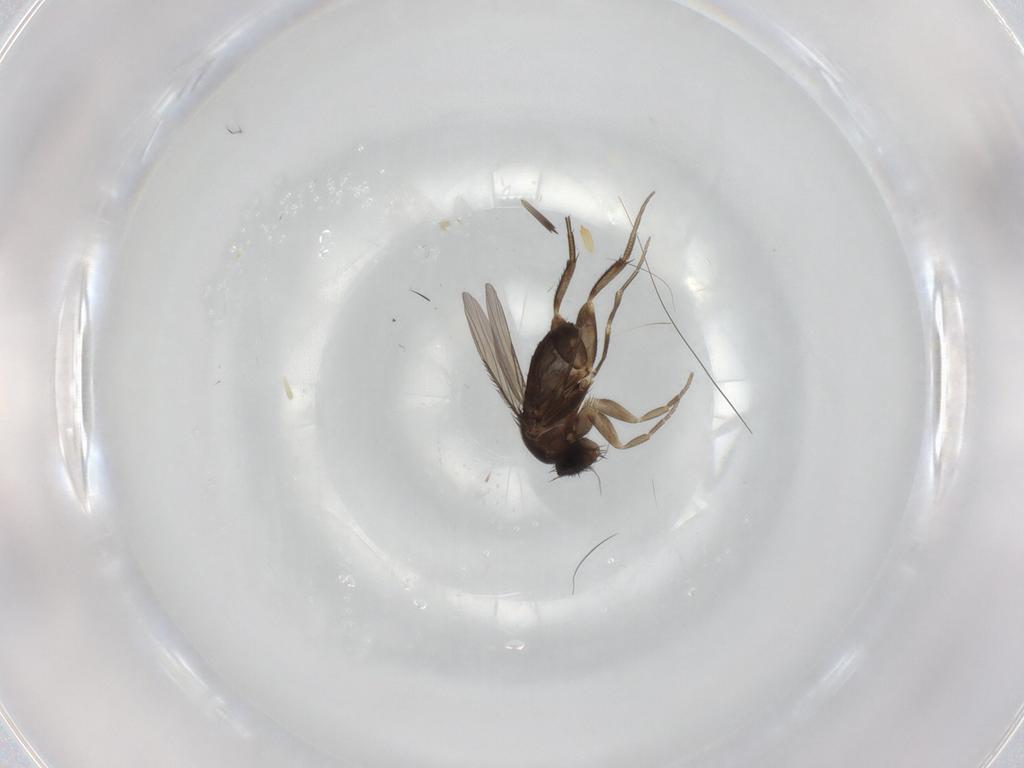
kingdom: Animalia
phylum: Arthropoda
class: Insecta
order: Diptera
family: Phoridae
